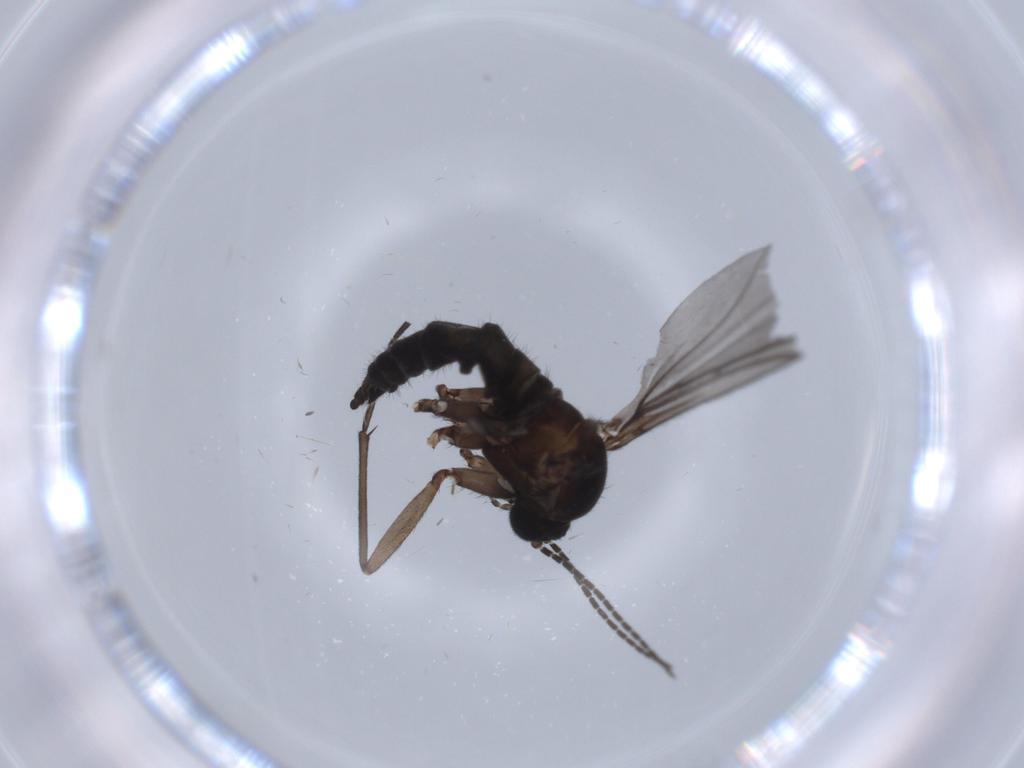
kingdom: Animalia
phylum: Arthropoda
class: Insecta
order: Diptera
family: Sciaridae
